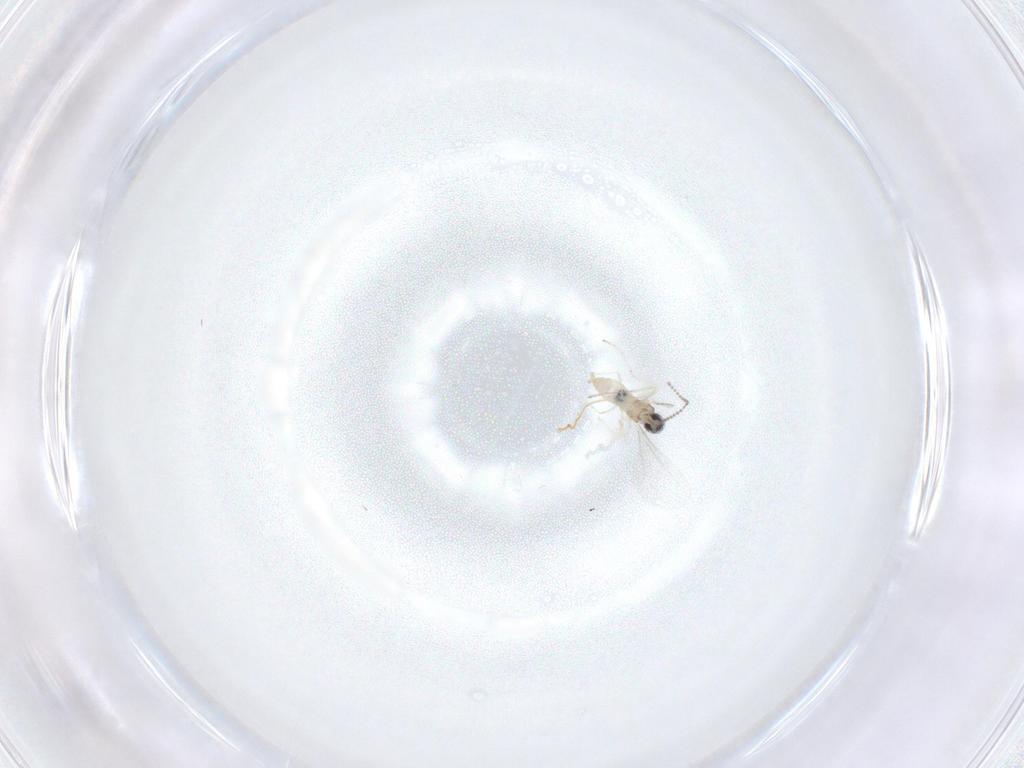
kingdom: Animalia
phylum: Arthropoda
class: Insecta
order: Diptera
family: Cecidomyiidae
